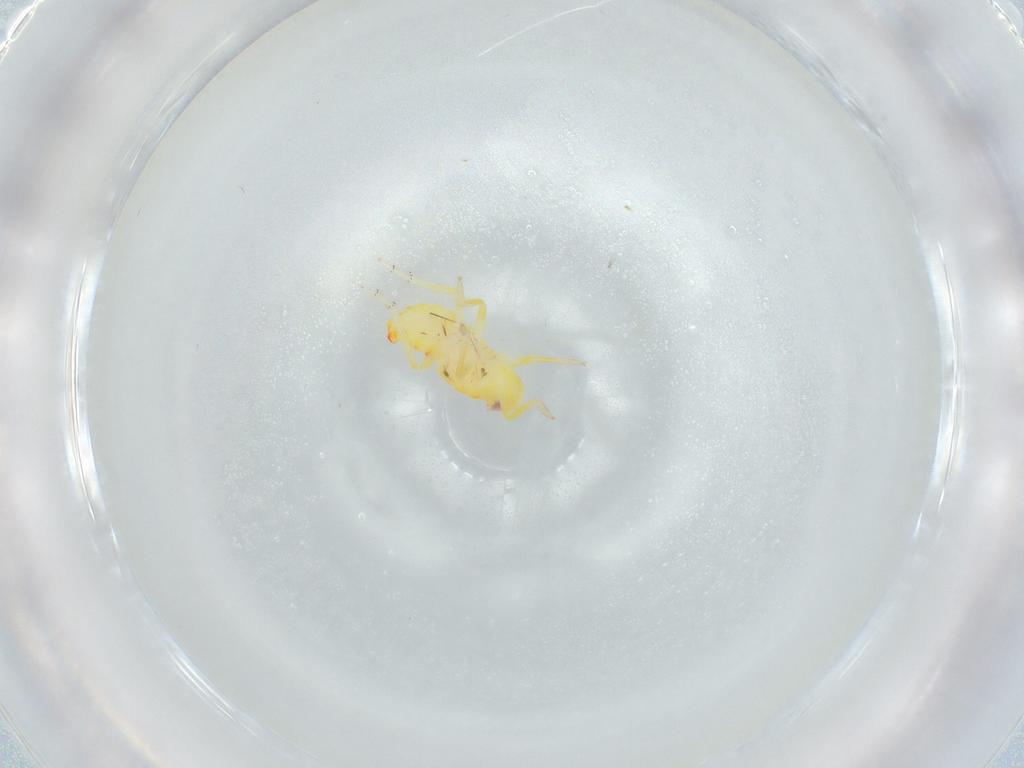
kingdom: Animalia
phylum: Arthropoda
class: Insecta
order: Hemiptera
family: Tropiduchidae
